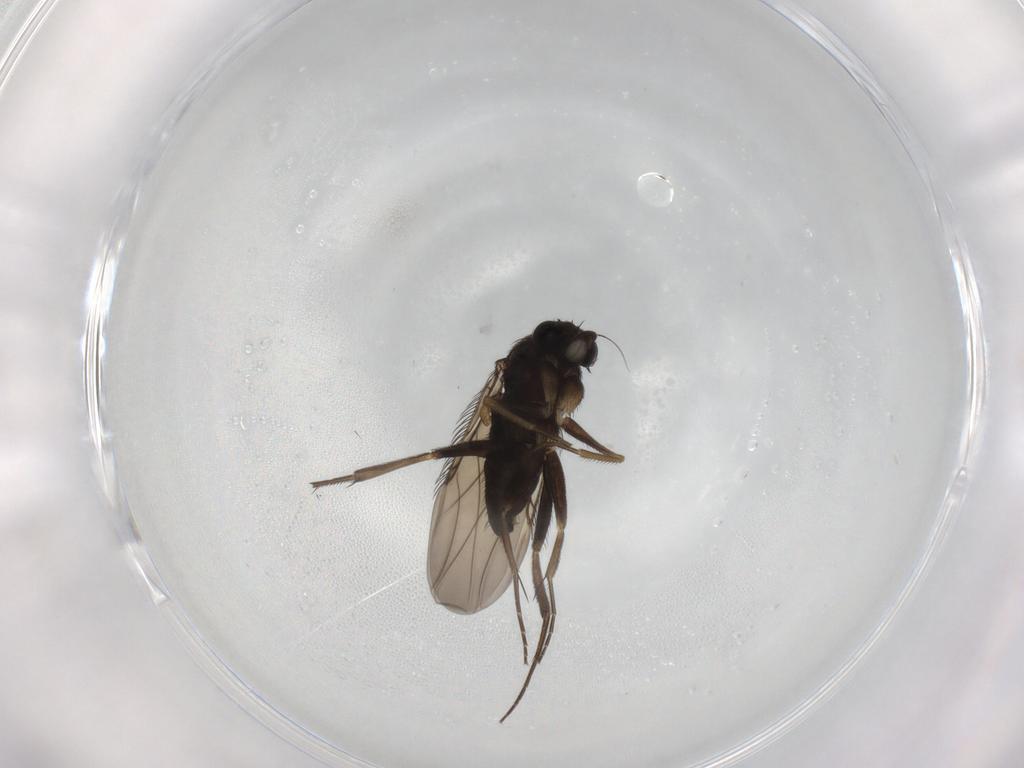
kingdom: Animalia
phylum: Arthropoda
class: Insecta
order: Diptera
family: Phoridae
